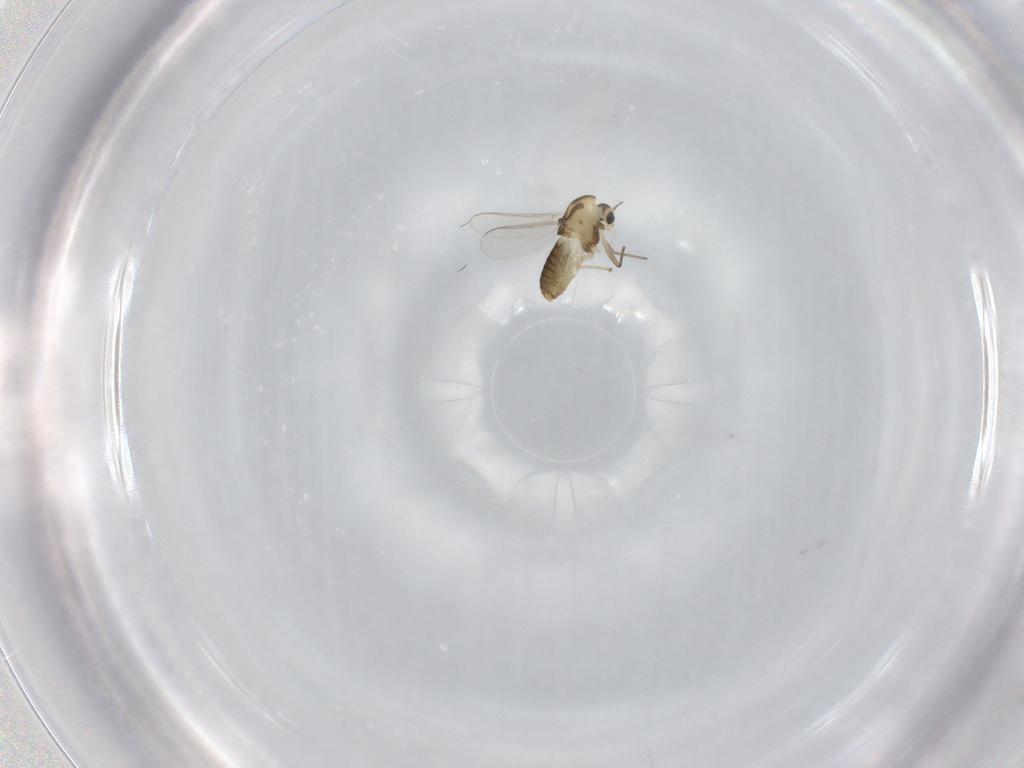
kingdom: Animalia
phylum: Arthropoda
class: Insecta
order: Diptera
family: Chironomidae
